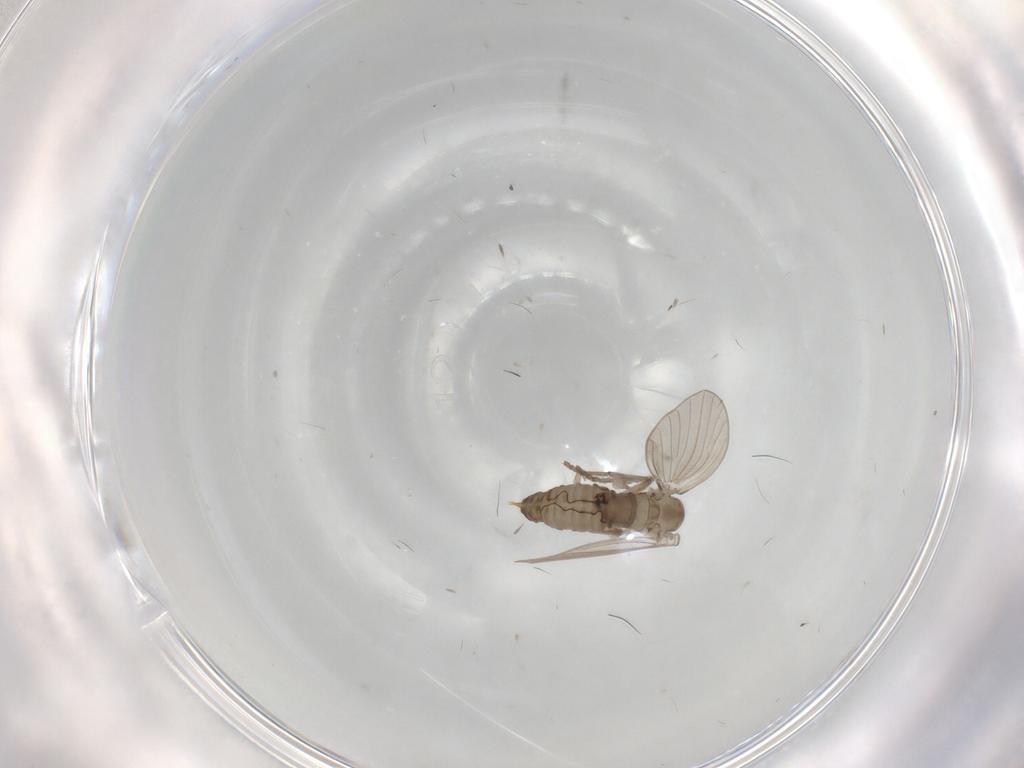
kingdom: Animalia
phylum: Arthropoda
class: Insecta
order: Diptera
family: Drosophilidae
